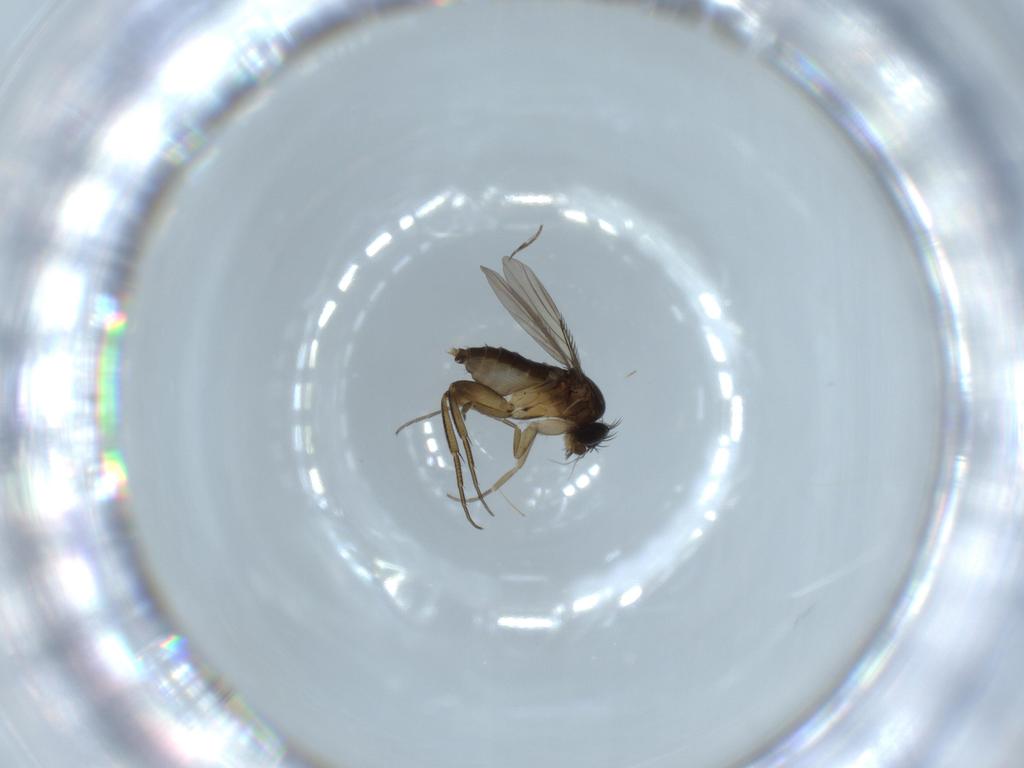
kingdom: Animalia
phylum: Arthropoda
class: Insecta
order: Diptera
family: Phoridae
